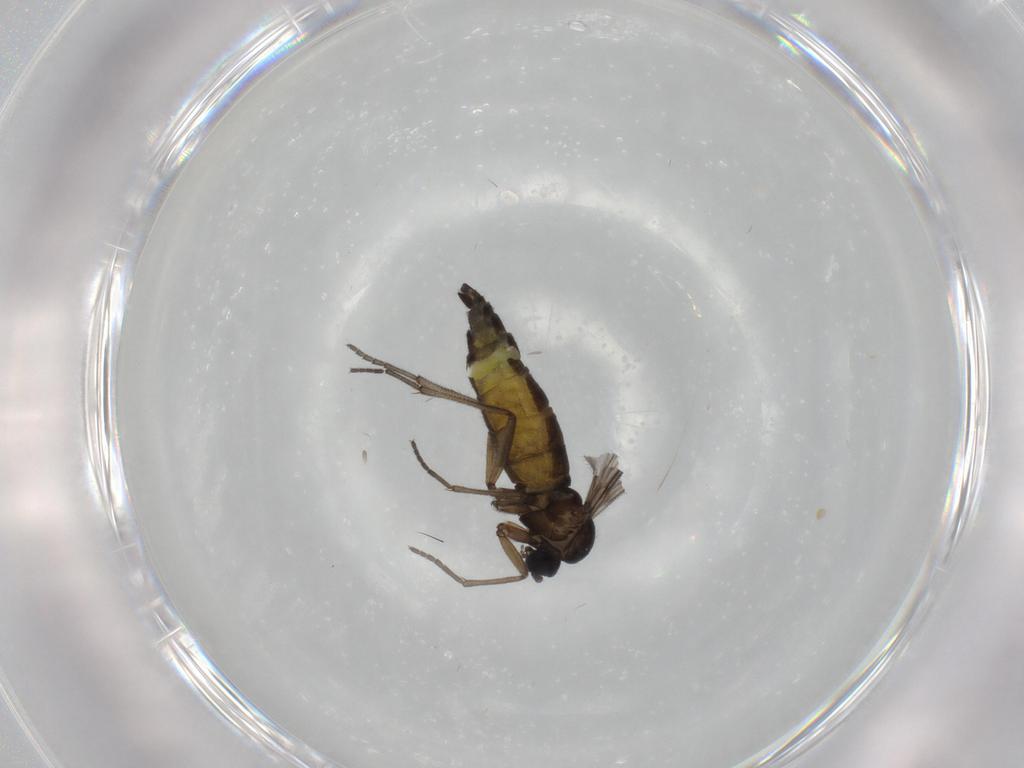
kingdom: Animalia
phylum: Arthropoda
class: Insecta
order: Diptera
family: Sciaridae
